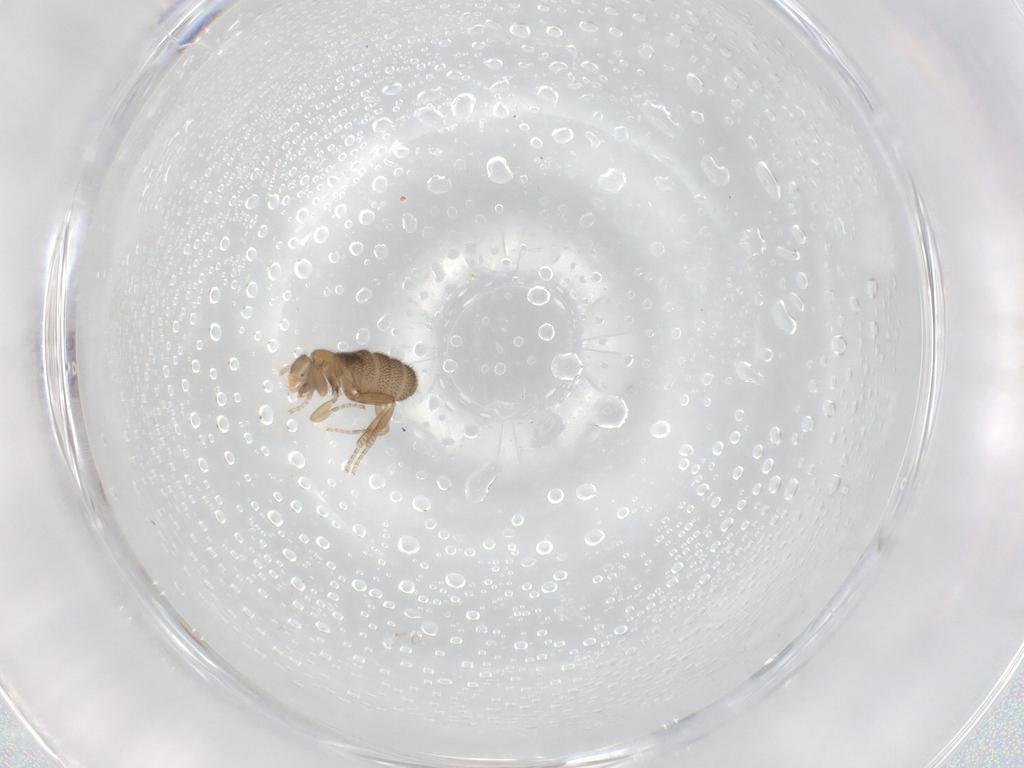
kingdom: Animalia
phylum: Arthropoda
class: Insecta
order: Diptera
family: Phoridae
